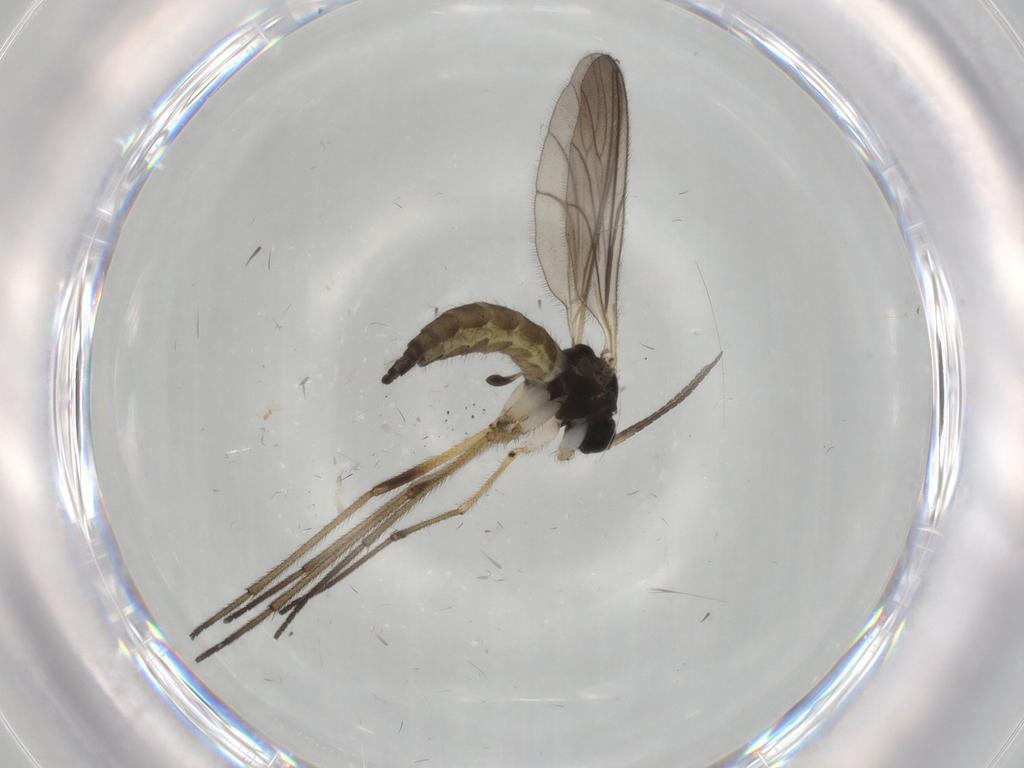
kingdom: Animalia
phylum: Arthropoda
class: Insecta
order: Diptera
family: Sciaridae
